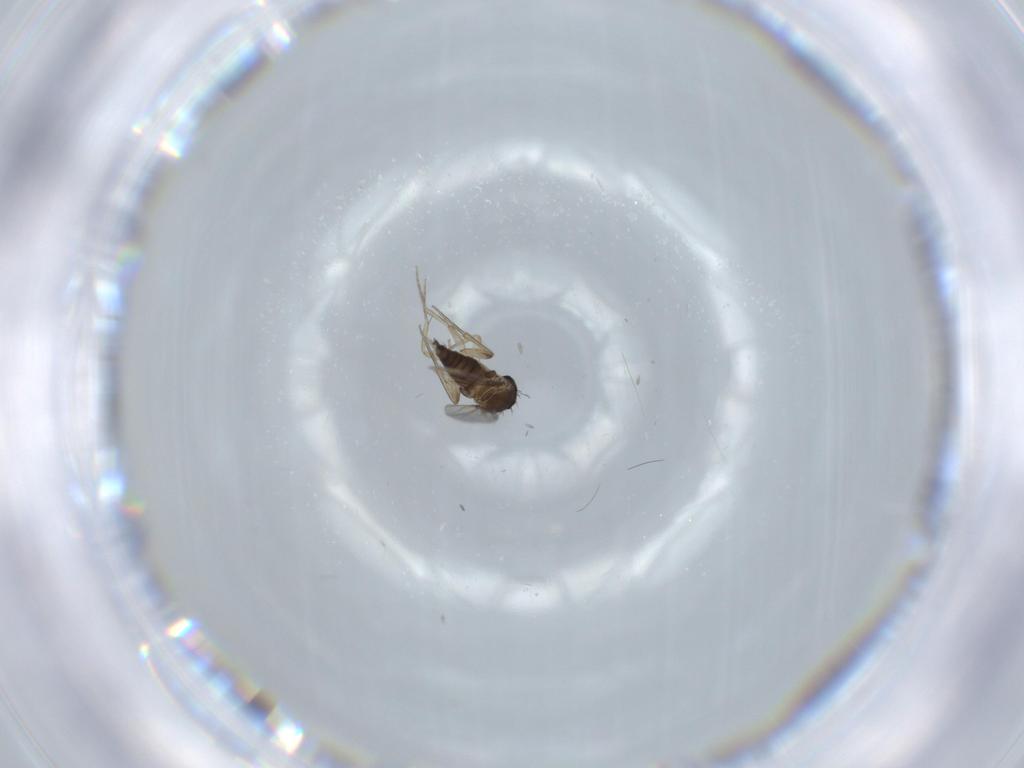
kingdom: Animalia
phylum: Arthropoda
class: Insecta
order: Diptera
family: Phoridae
